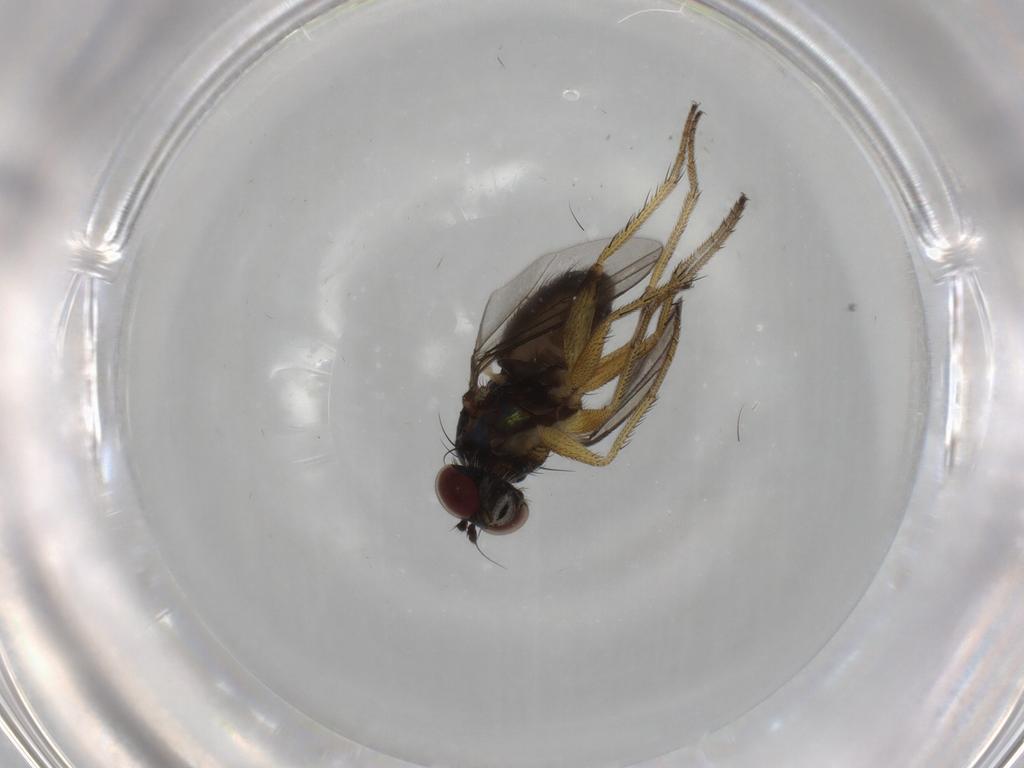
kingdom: Animalia
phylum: Arthropoda
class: Insecta
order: Diptera
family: Dolichopodidae
